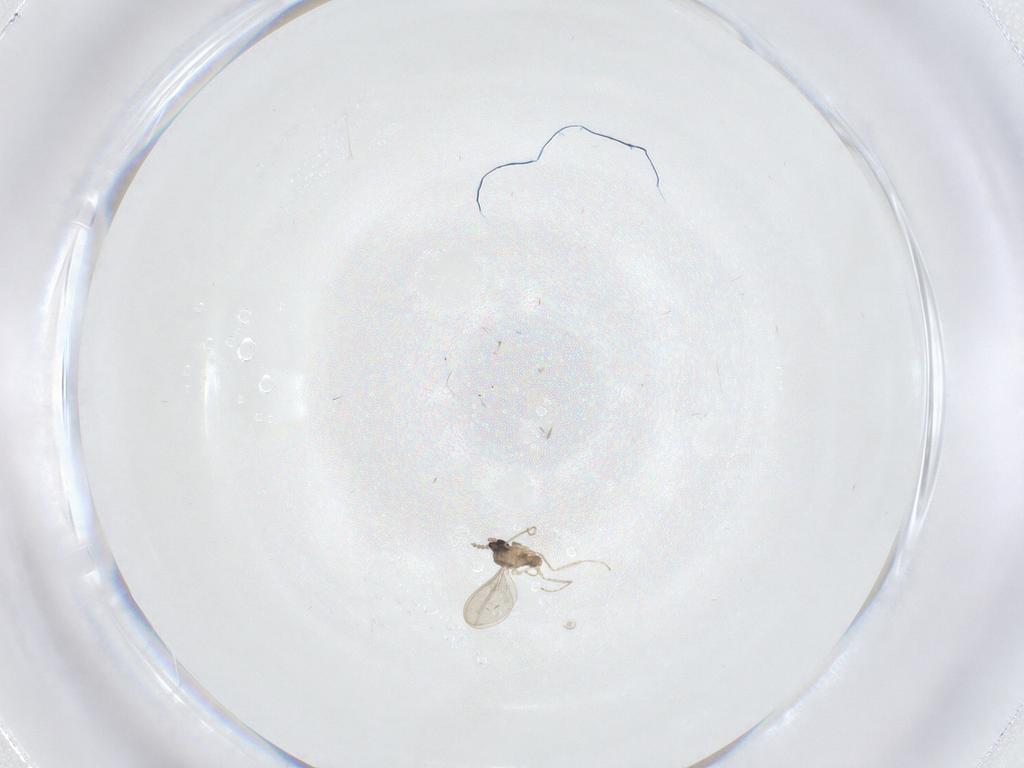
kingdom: Animalia
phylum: Arthropoda
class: Insecta
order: Diptera
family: Cecidomyiidae
